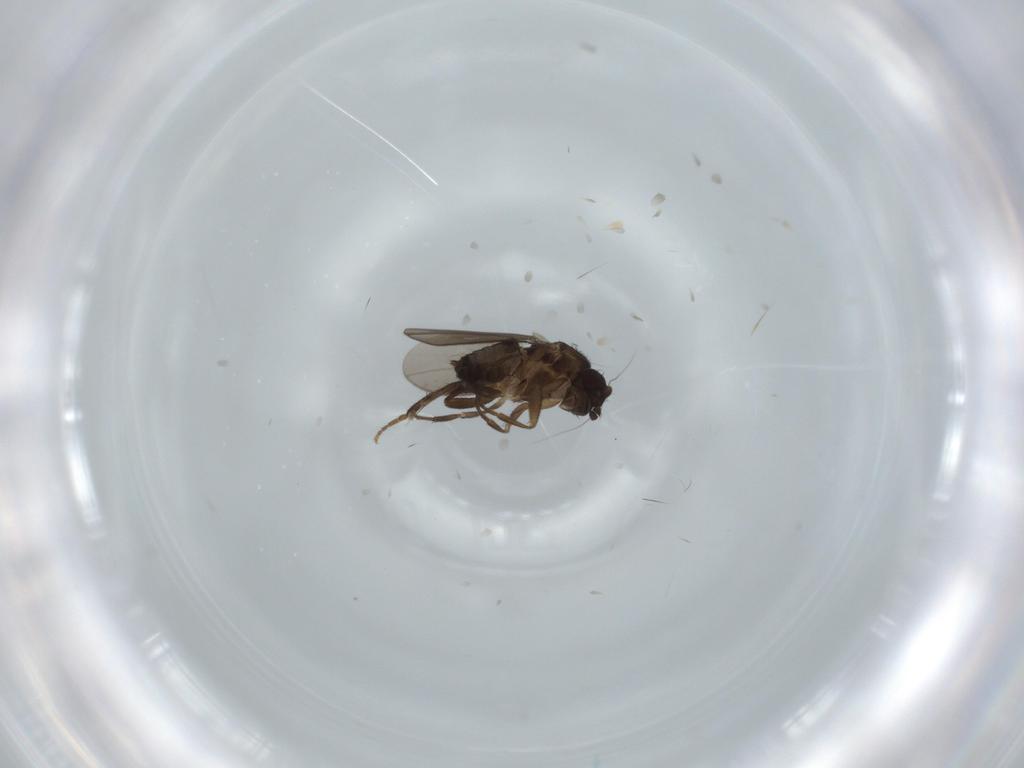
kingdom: Animalia
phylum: Arthropoda
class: Insecta
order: Diptera
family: Sphaeroceridae
